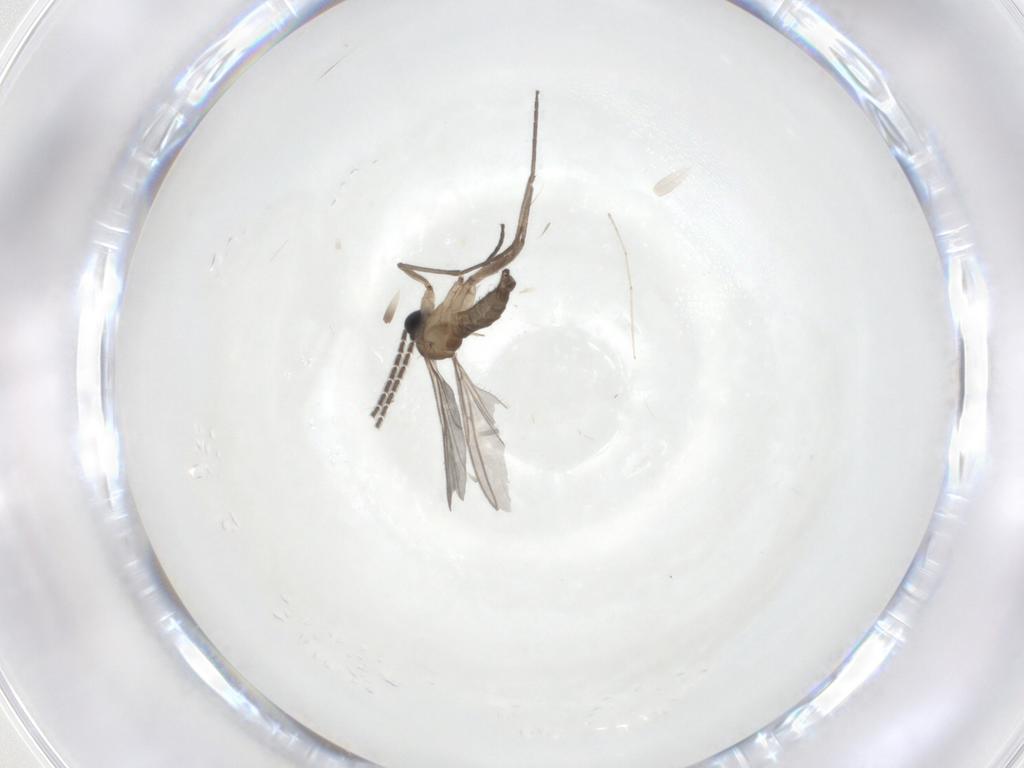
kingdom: Animalia
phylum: Arthropoda
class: Insecta
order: Diptera
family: Sciaridae
